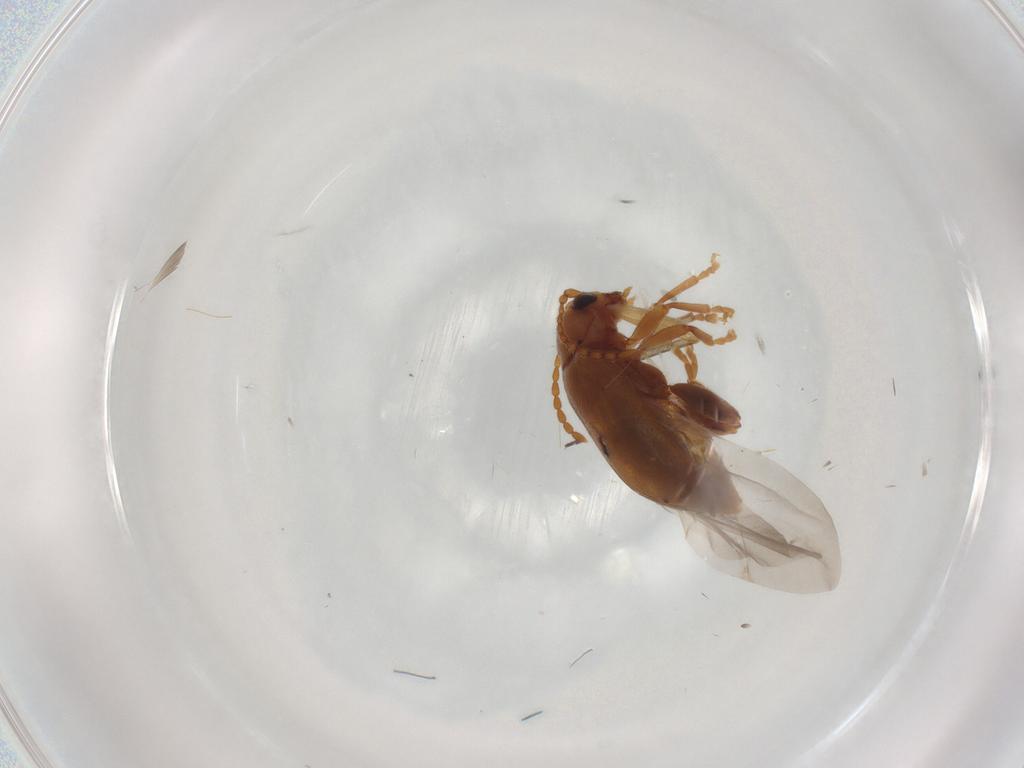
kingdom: Animalia
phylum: Arthropoda
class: Insecta
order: Coleoptera
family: Chrysomelidae
